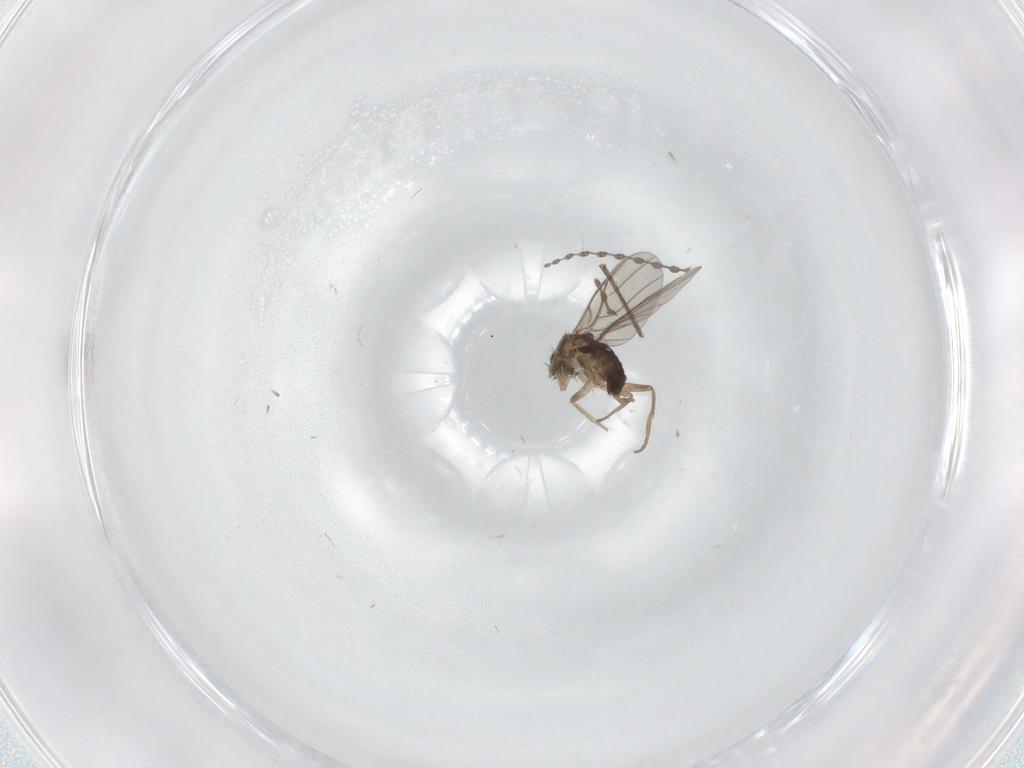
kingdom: Animalia
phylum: Arthropoda
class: Insecta
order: Diptera
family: Phoridae
